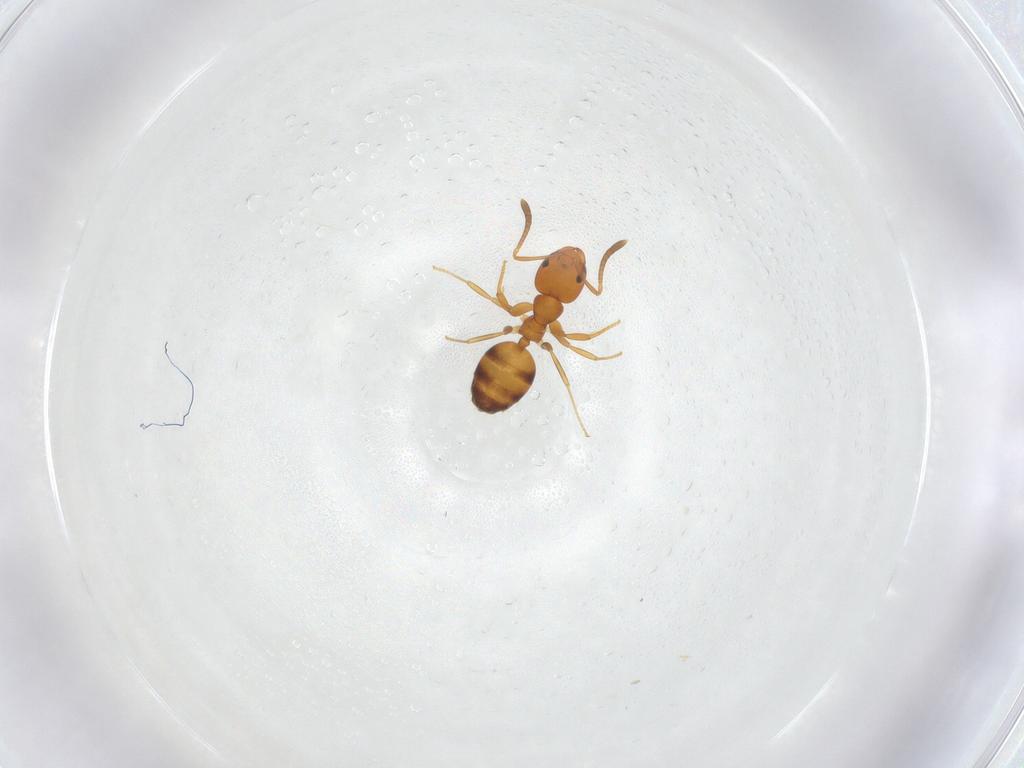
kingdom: Animalia
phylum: Arthropoda
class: Insecta
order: Hymenoptera
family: Formicidae
